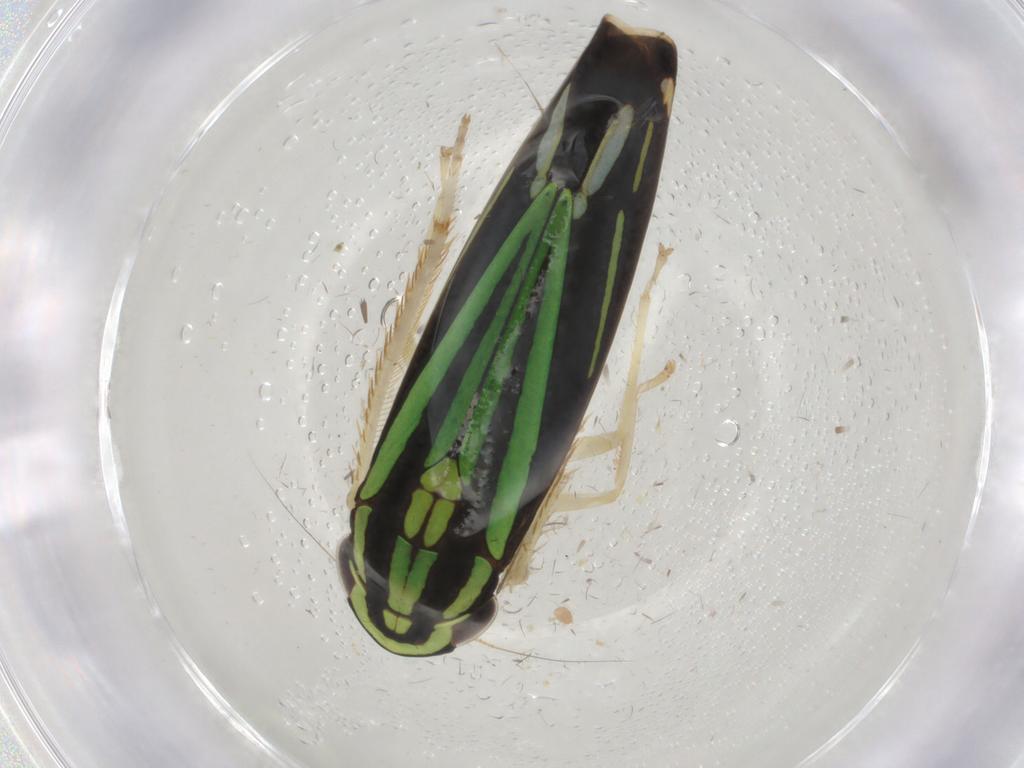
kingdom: Animalia
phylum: Arthropoda
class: Insecta
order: Hemiptera
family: Cicadellidae
